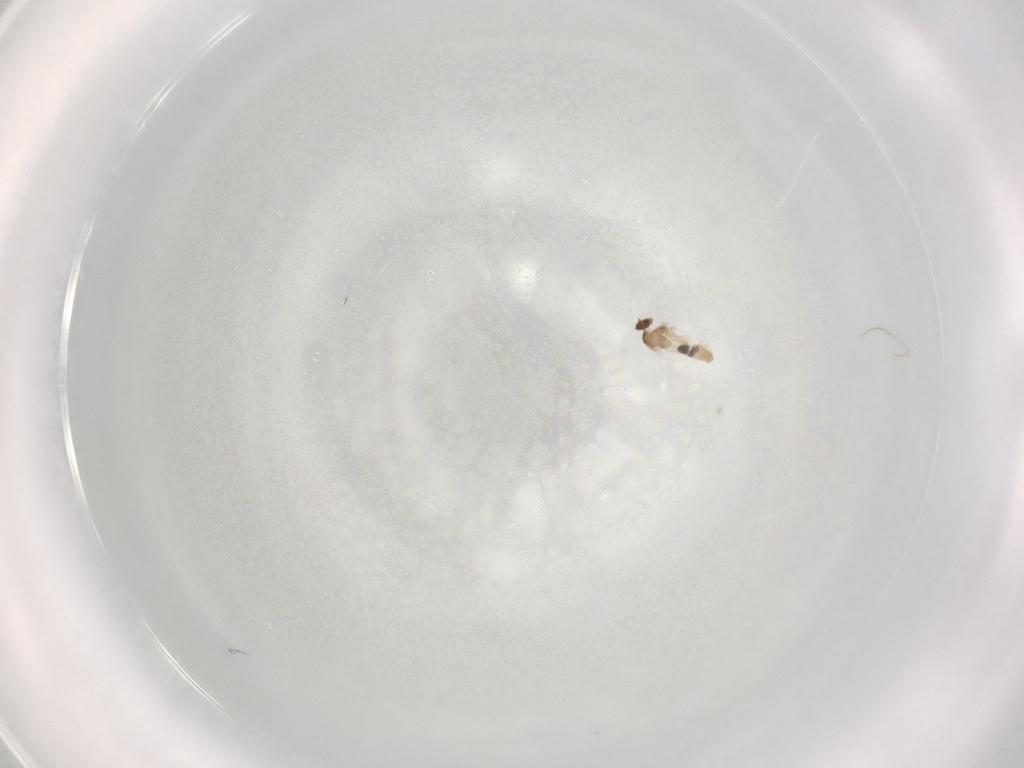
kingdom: Animalia
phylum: Arthropoda
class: Insecta
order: Diptera
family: Cecidomyiidae
